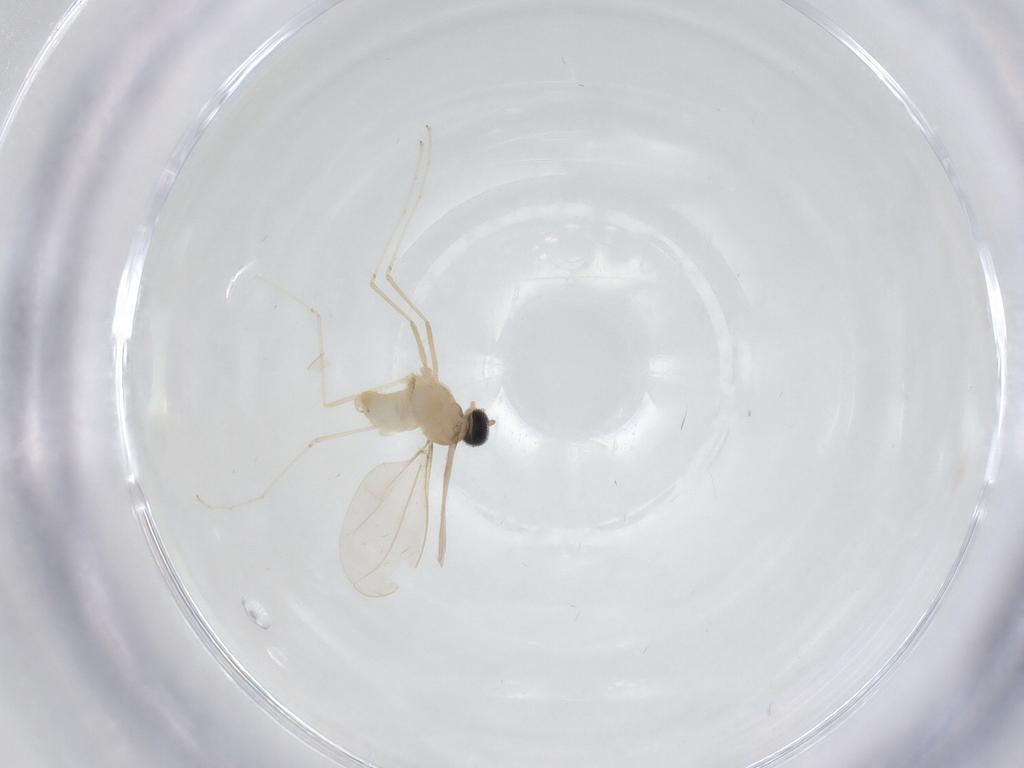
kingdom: Animalia
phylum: Arthropoda
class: Insecta
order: Diptera
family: Cecidomyiidae
